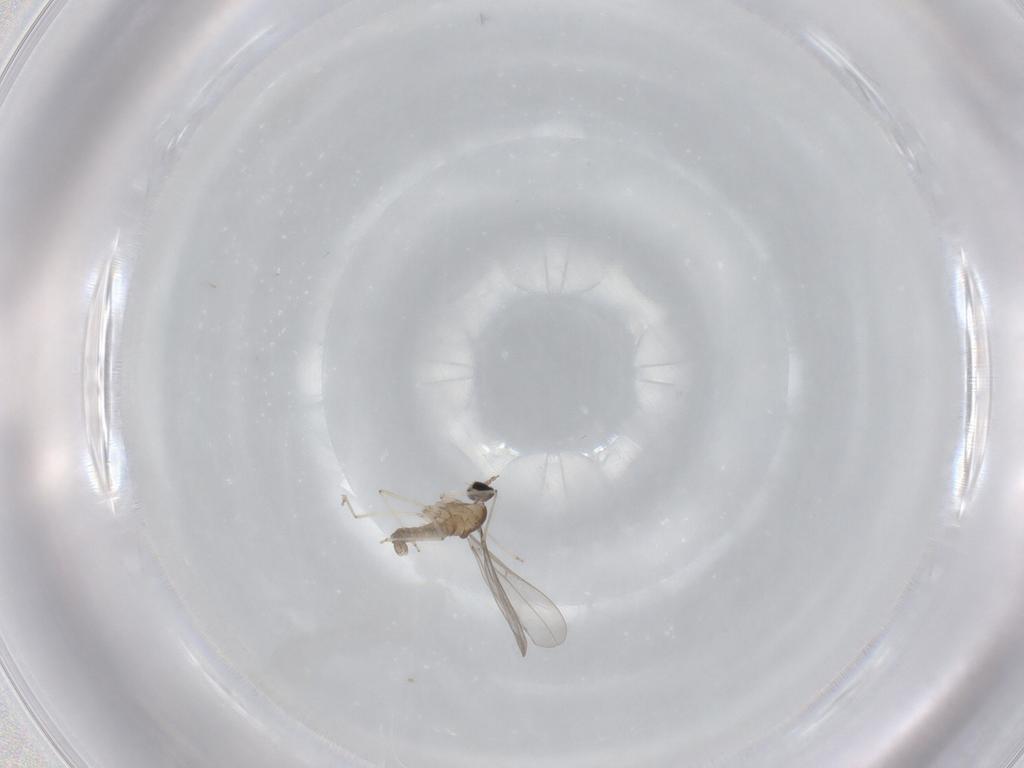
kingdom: Animalia
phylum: Arthropoda
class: Insecta
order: Diptera
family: Cecidomyiidae
